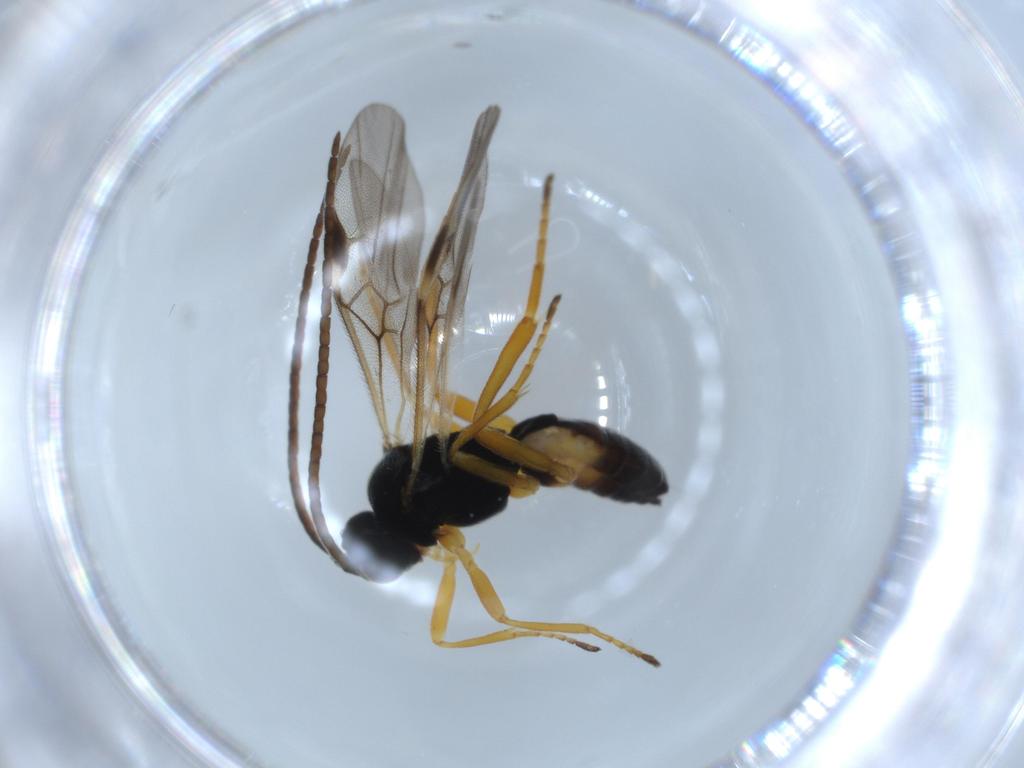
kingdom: Animalia
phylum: Arthropoda
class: Insecta
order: Hymenoptera
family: Braconidae
